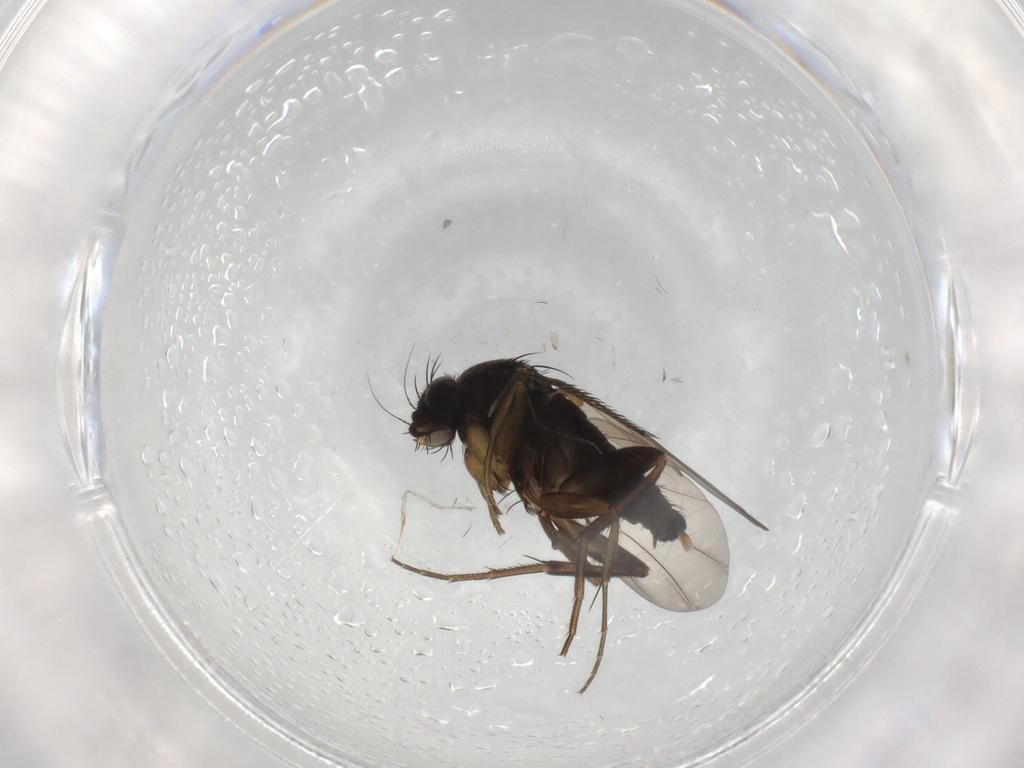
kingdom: Animalia
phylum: Arthropoda
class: Insecta
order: Diptera
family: Phoridae
